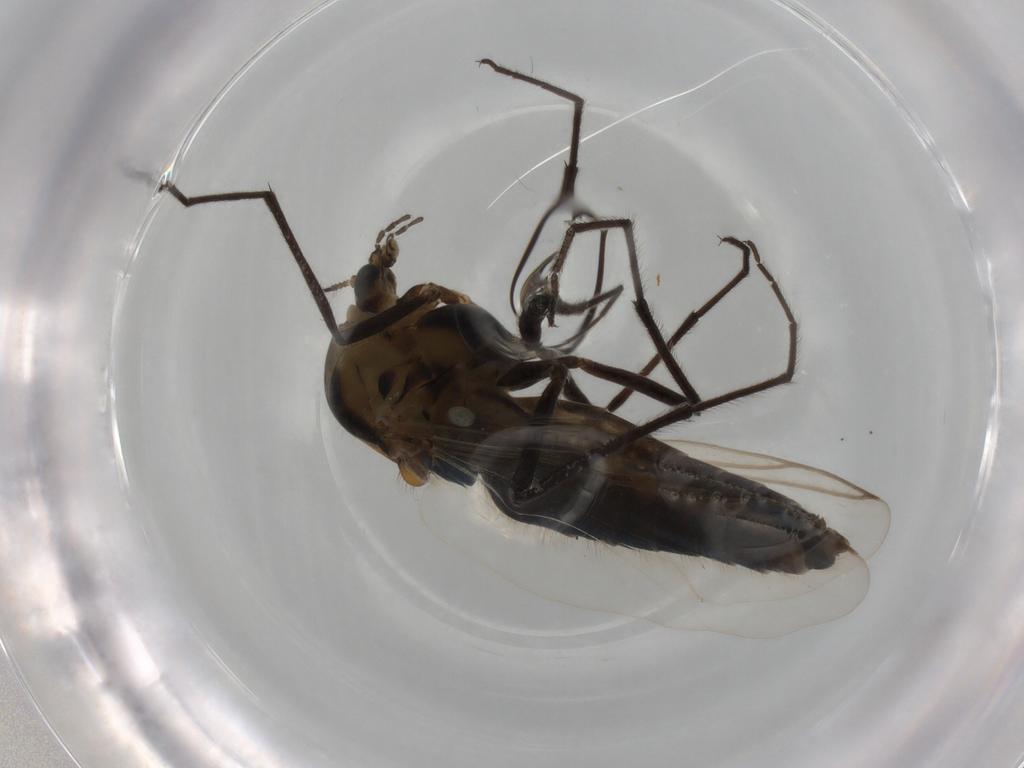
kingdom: Animalia
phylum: Arthropoda
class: Insecta
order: Diptera
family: Chironomidae
